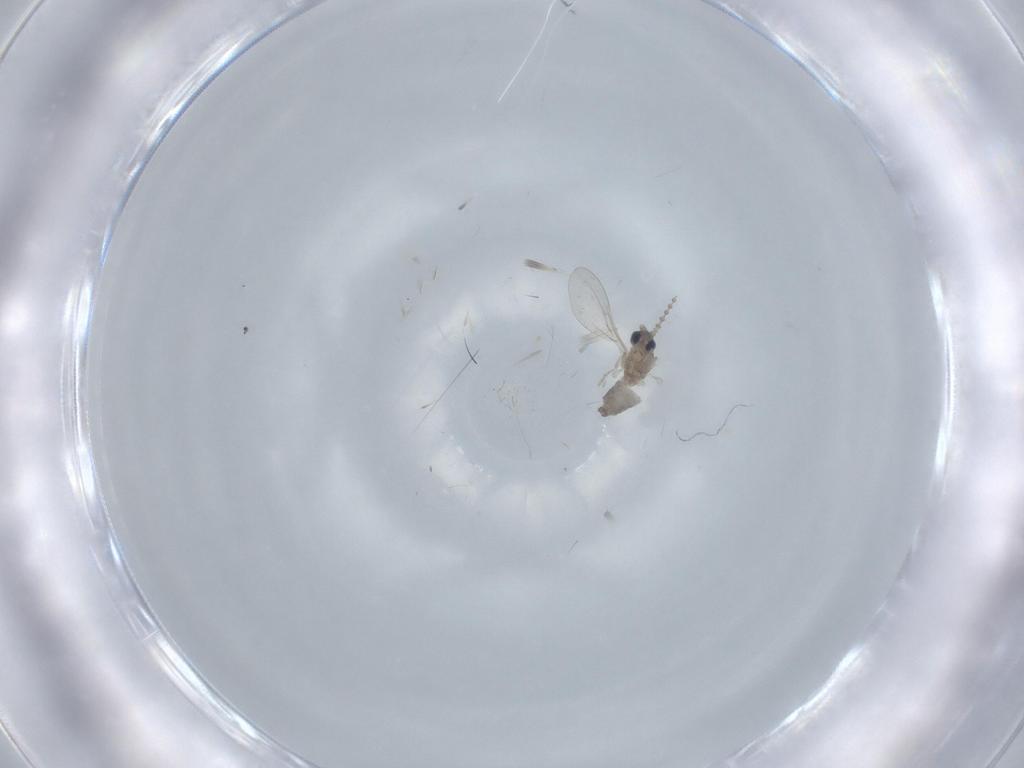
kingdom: Animalia
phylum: Arthropoda
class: Insecta
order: Diptera
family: Cecidomyiidae
